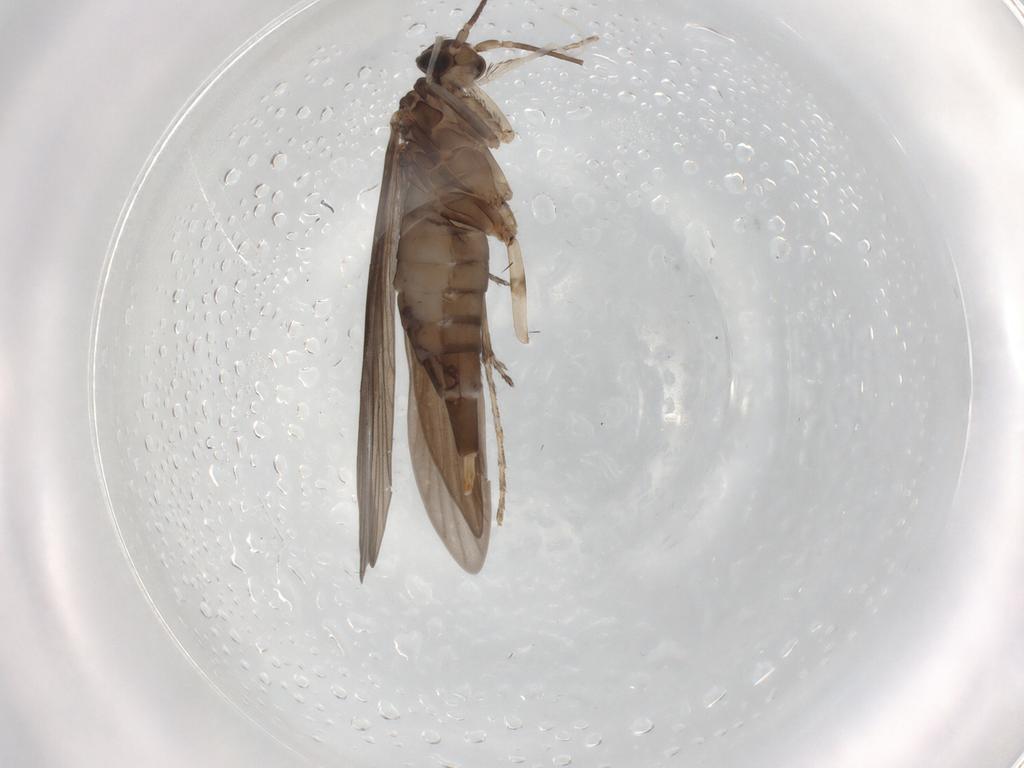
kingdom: Animalia
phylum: Arthropoda
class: Insecta
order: Trichoptera
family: Xiphocentronidae
